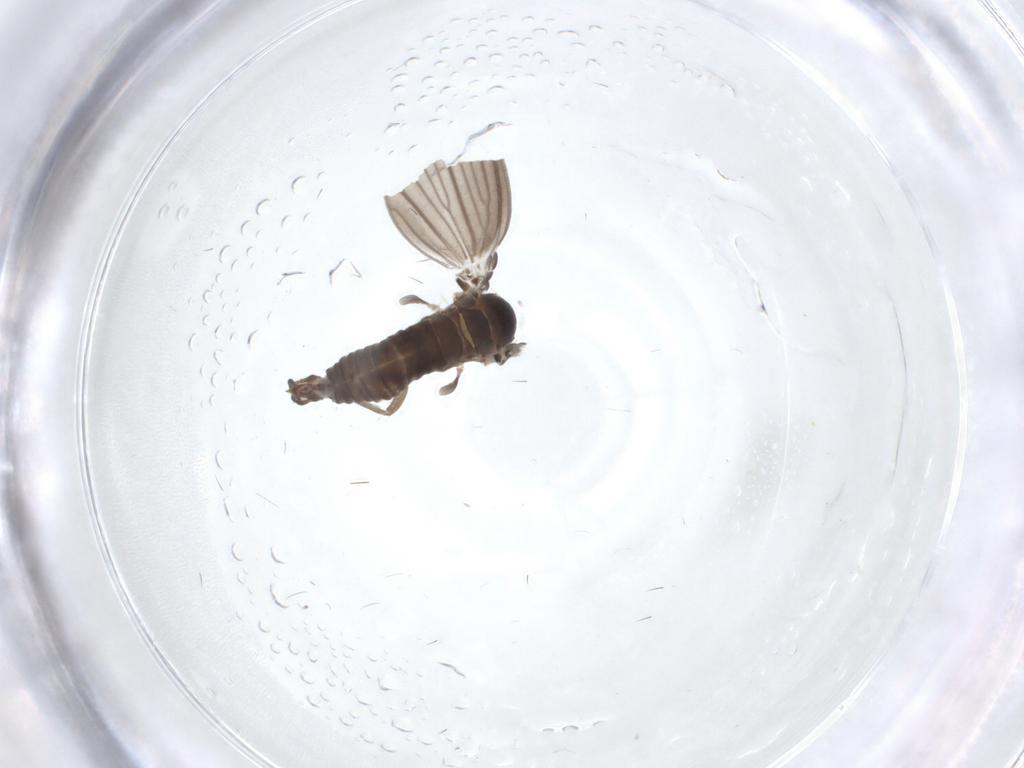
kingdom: Animalia
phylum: Arthropoda
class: Insecta
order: Diptera
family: Psychodidae
